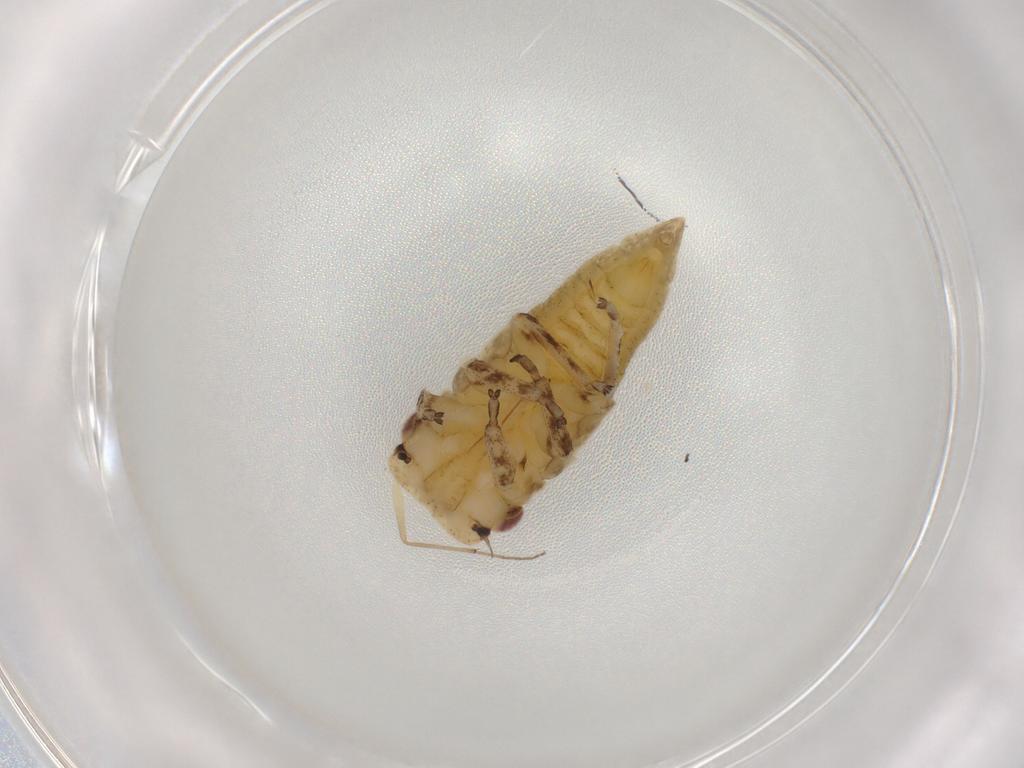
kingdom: Animalia
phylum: Arthropoda
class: Insecta
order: Hemiptera
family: Cicadellidae
